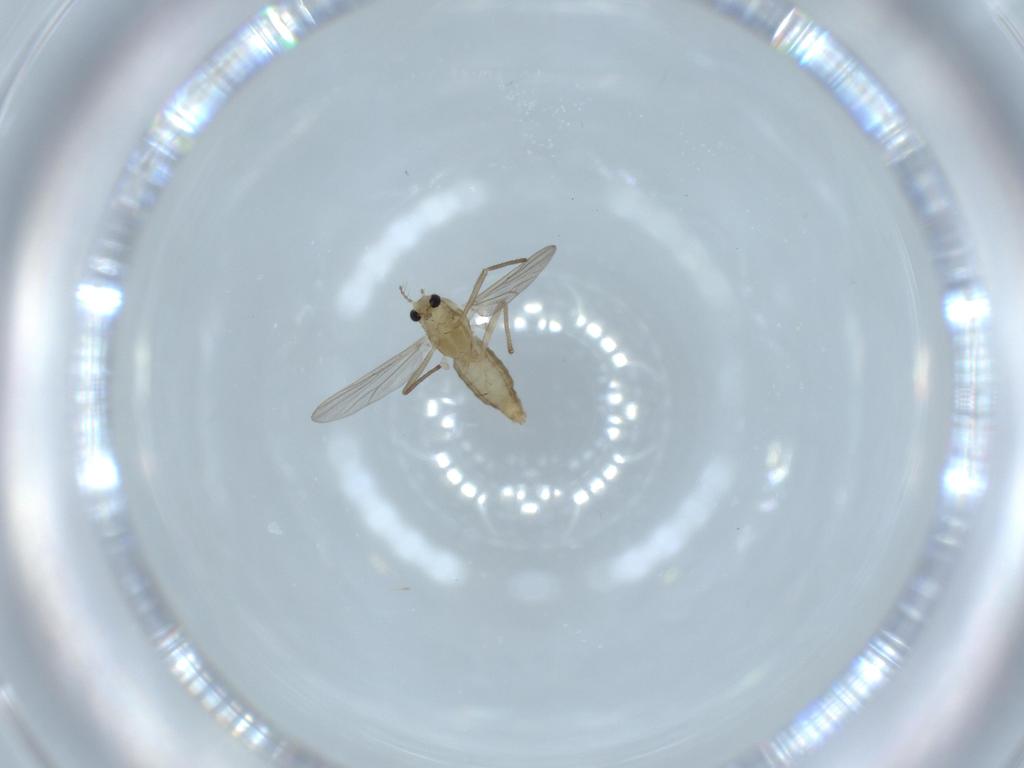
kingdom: Animalia
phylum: Arthropoda
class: Insecta
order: Diptera
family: Chironomidae
